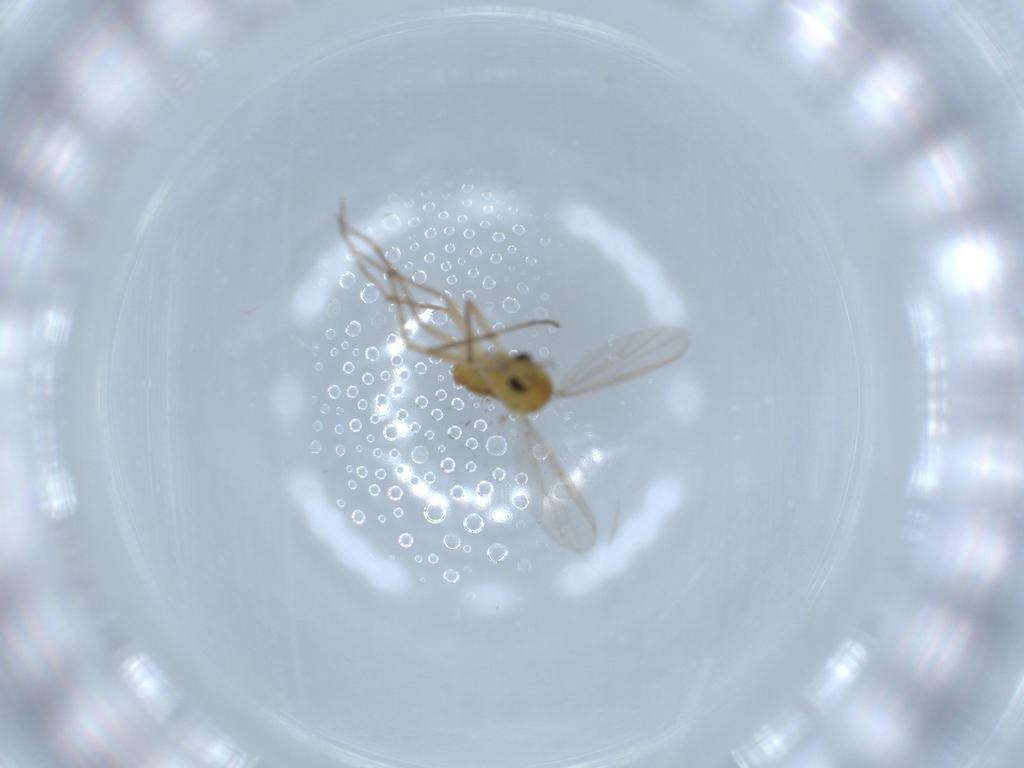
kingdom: Animalia
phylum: Arthropoda
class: Insecta
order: Diptera
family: Chironomidae
